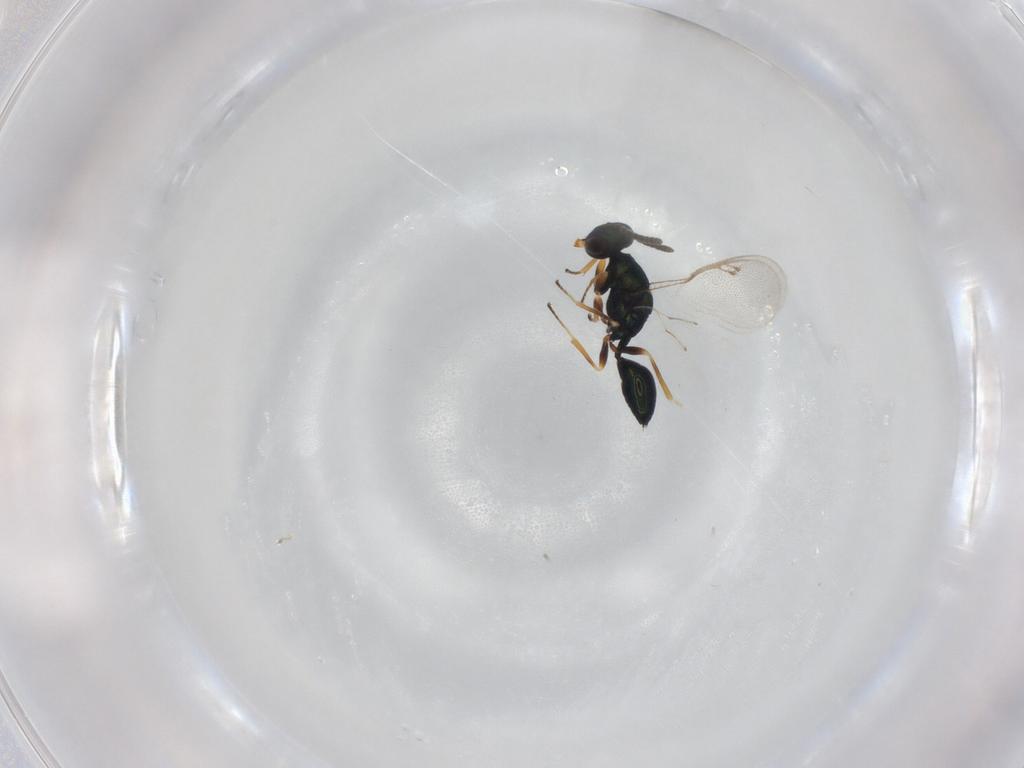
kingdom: Animalia
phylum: Arthropoda
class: Insecta
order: Hymenoptera
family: Pteromalidae
